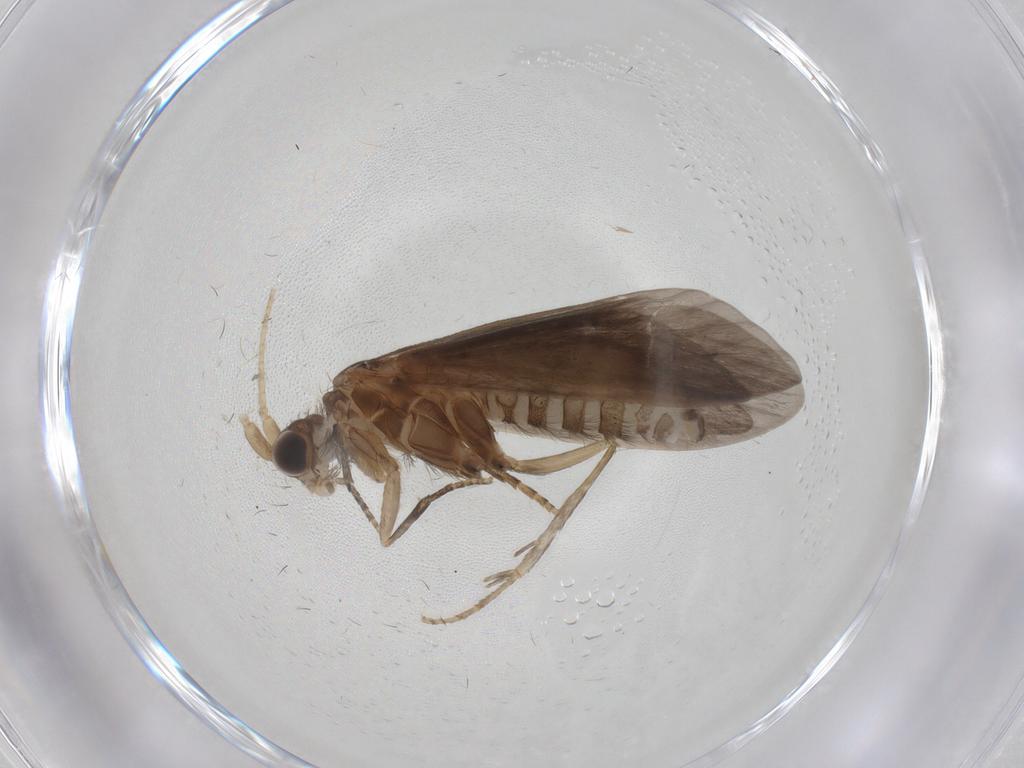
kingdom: Animalia
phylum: Arthropoda
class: Insecta
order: Trichoptera
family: Helicopsychidae
